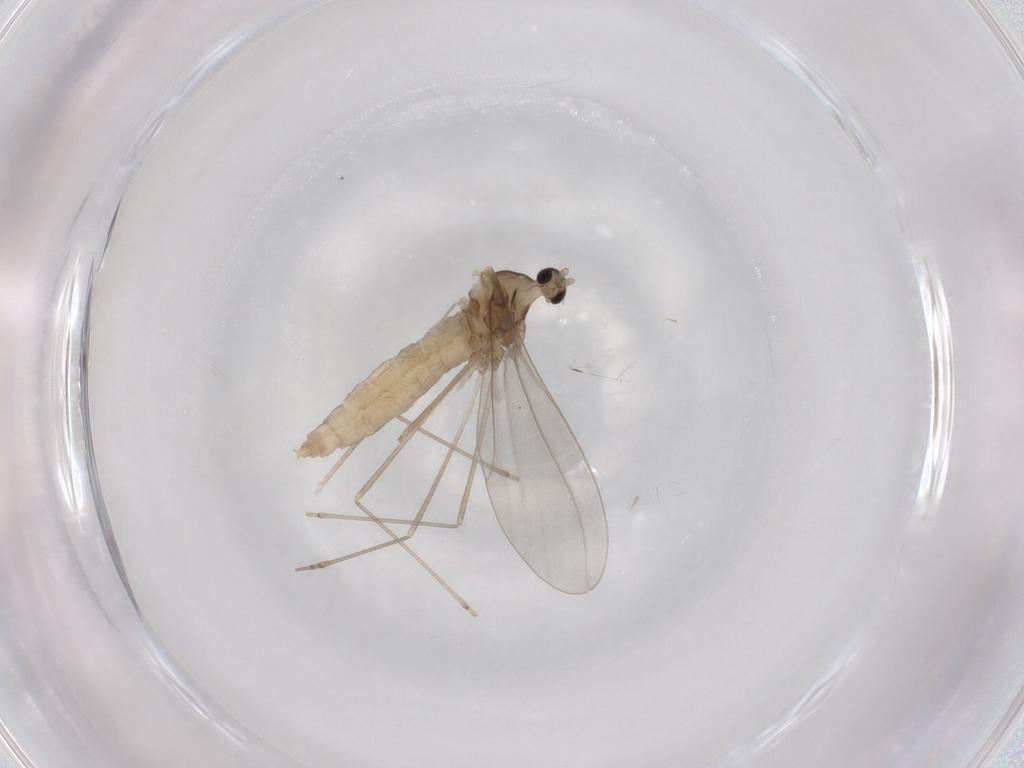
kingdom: Animalia
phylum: Arthropoda
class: Insecta
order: Diptera
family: Cecidomyiidae
